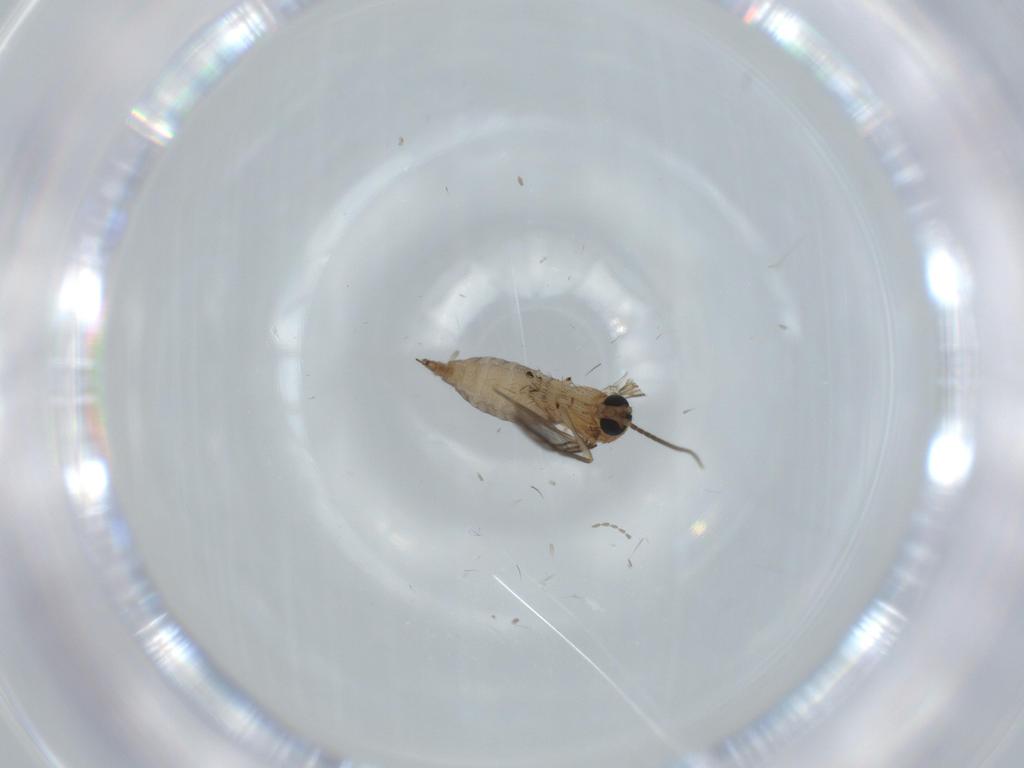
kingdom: Animalia
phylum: Arthropoda
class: Insecta
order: Diptera
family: Sciaridae
